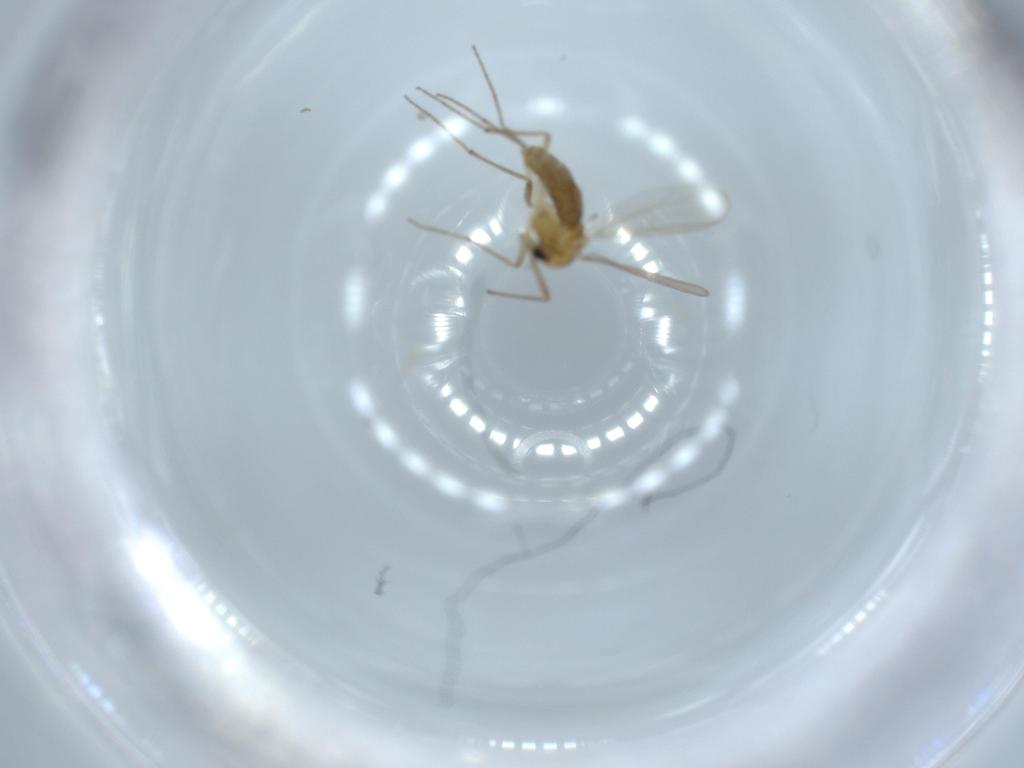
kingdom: Animalia
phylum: Arthropoda
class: Insecta
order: Diptera
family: Chironomidae
